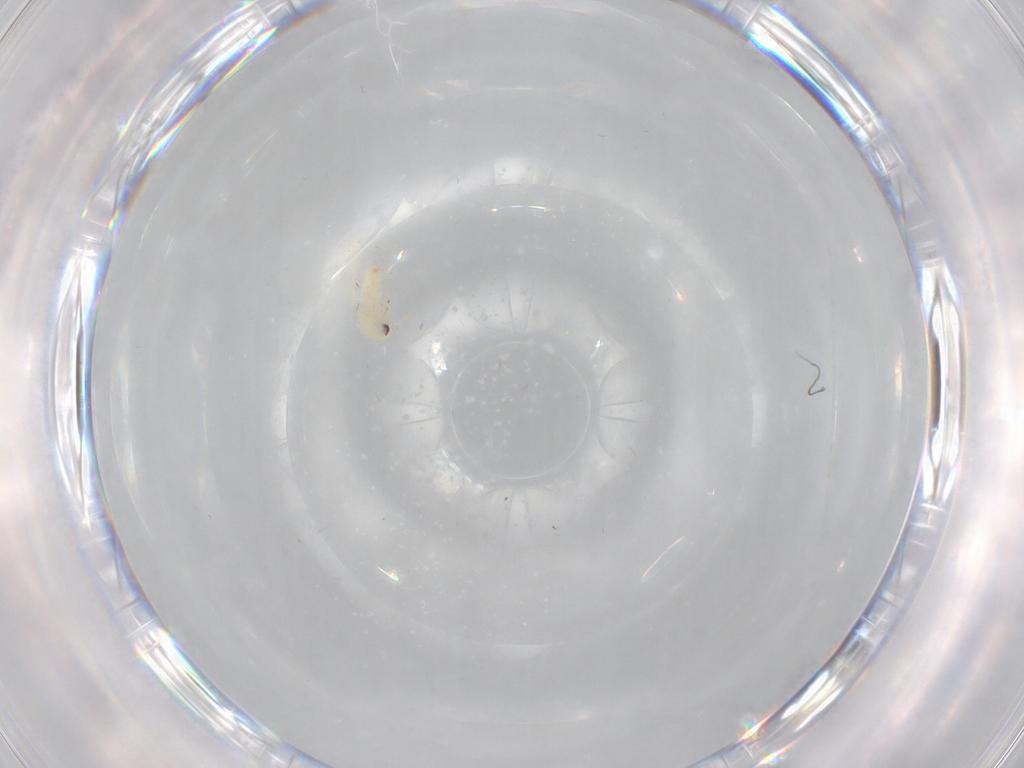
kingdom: Animalia
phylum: Arthropoda
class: Insecta
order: Hemiptera
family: Aleyrodidae
